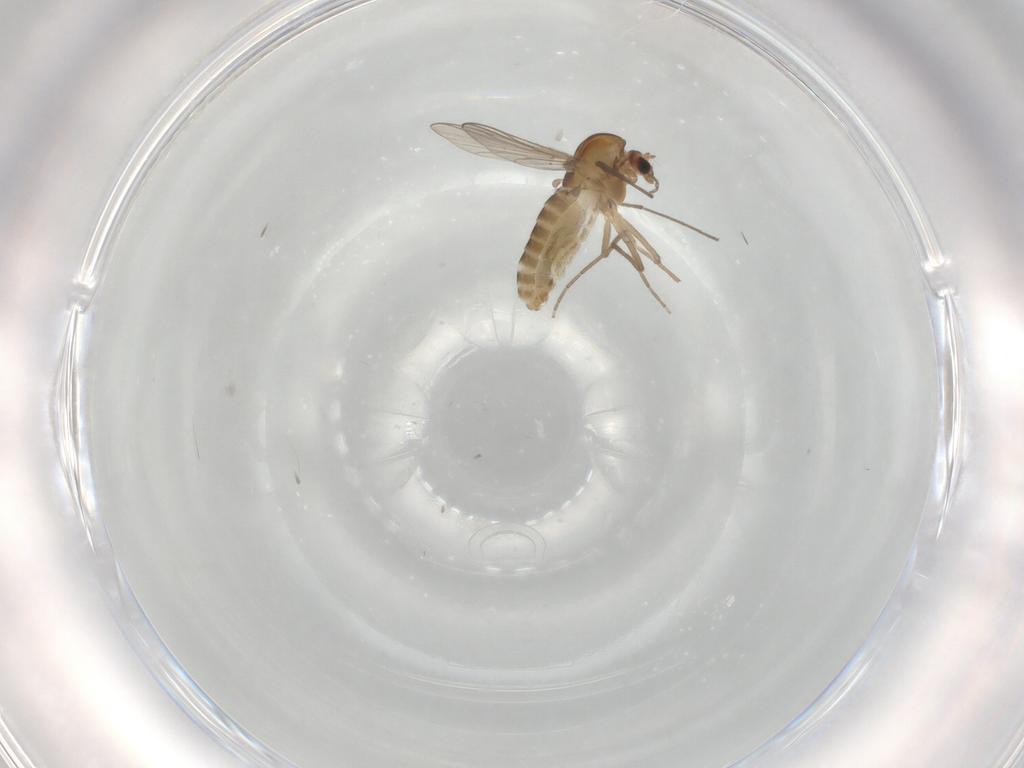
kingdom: Animalia
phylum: Arthropoda
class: Insecta
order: Diptera
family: Chironomidae
